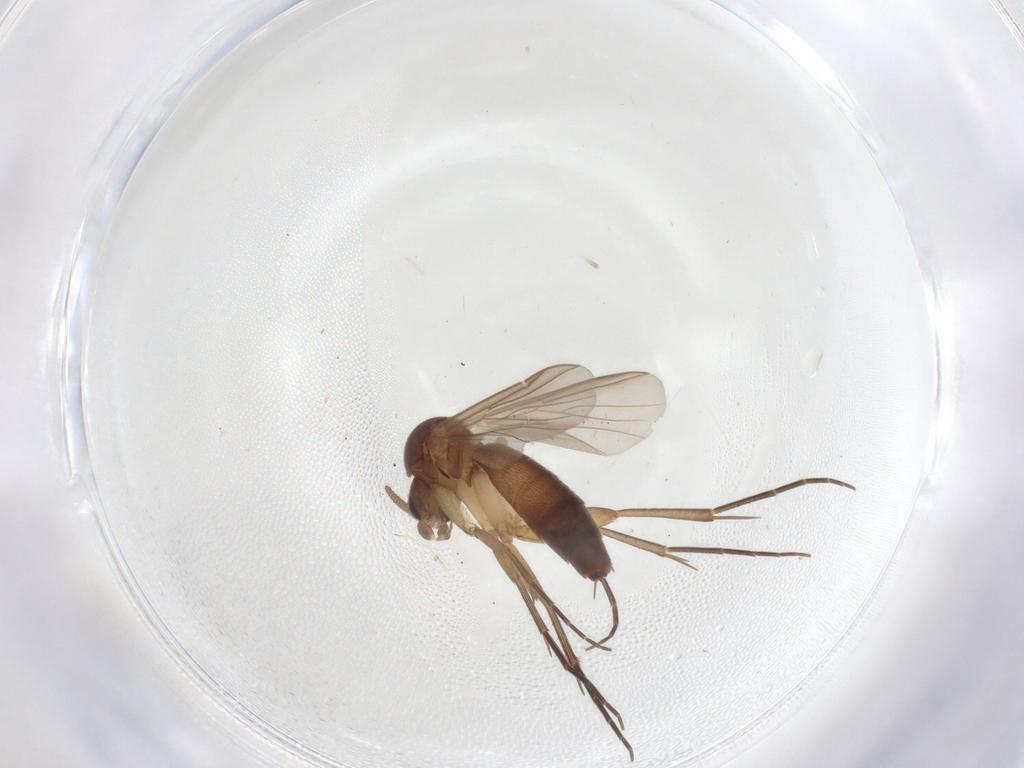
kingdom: Animalia
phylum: Arthropoda
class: Insecta
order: Diptera
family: Mycetophilidae
